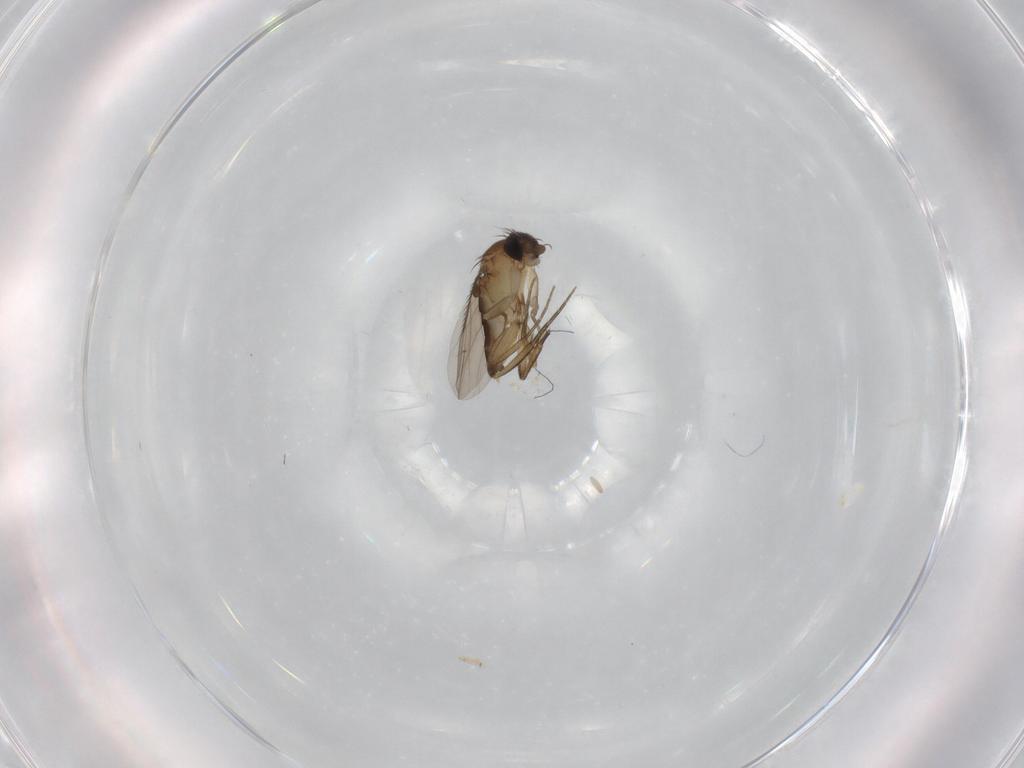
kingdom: Animalia
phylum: Arthropoda
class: Insecta
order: Diptera
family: Phoridae
